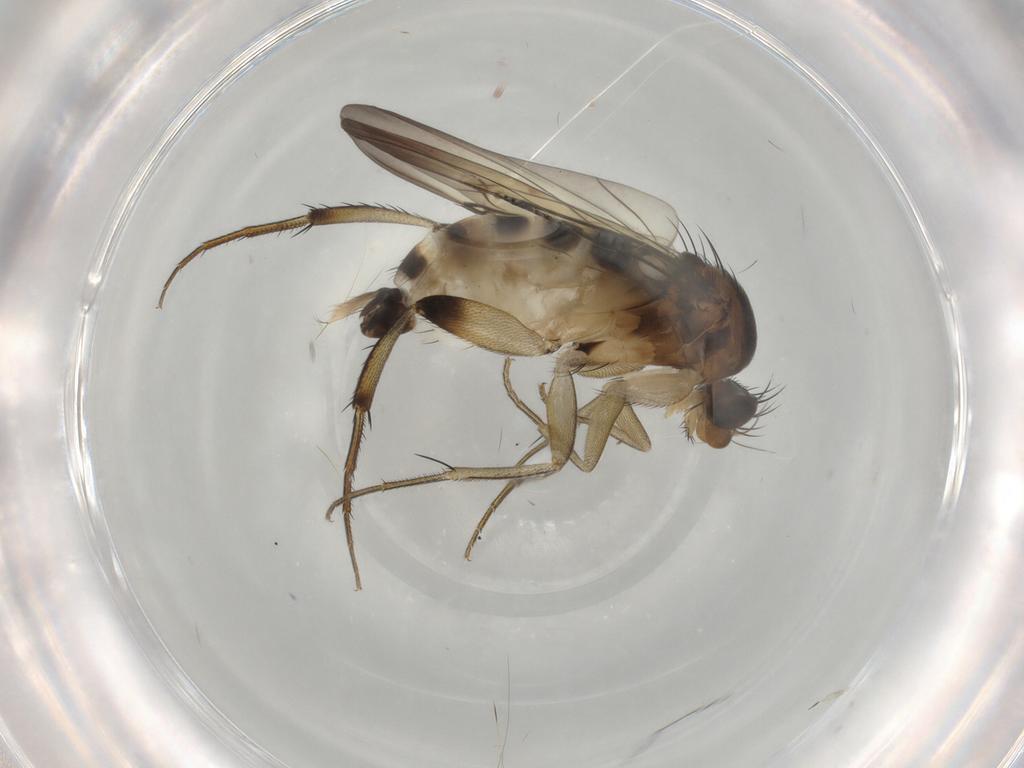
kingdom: Animalia
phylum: Arthropoda
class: Insecta
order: Diptera
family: Phoridae
